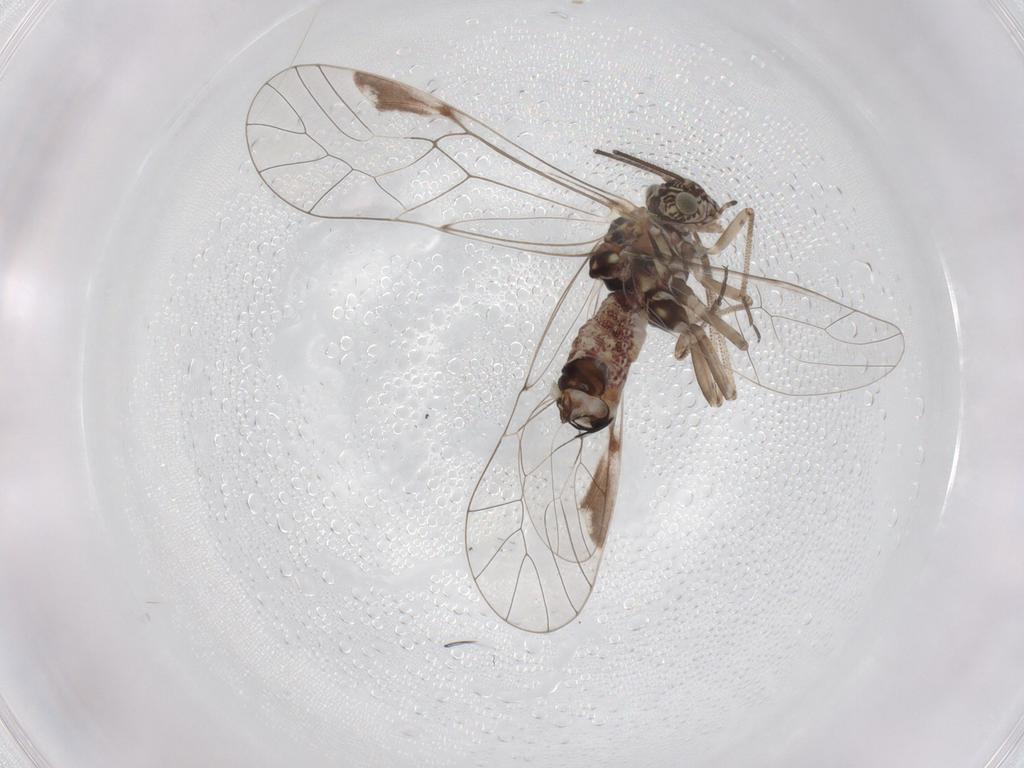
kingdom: Animalia
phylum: Arthropoda
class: Insecta
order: Psocodea
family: Psocidae
